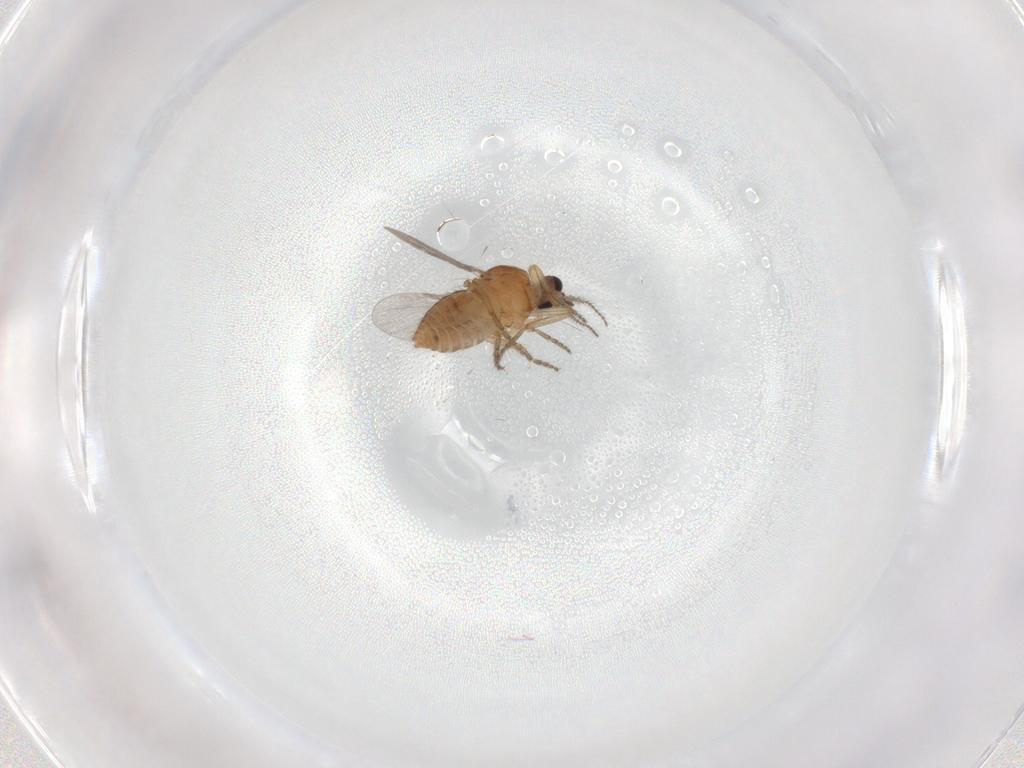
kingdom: Animalia
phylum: Arthropoda
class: Insecta
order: Diptera
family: Ceratopogonidae
